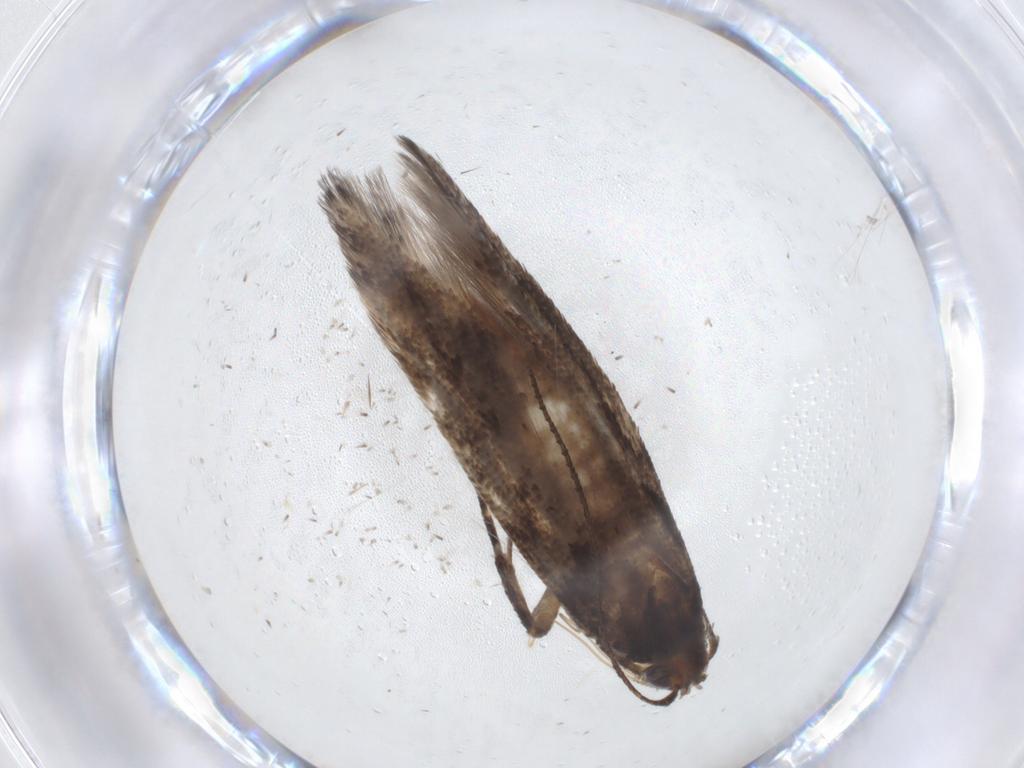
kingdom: Animalia
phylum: Arthropoda
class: Insecta
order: Lepidoptera
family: Gelechiidae
